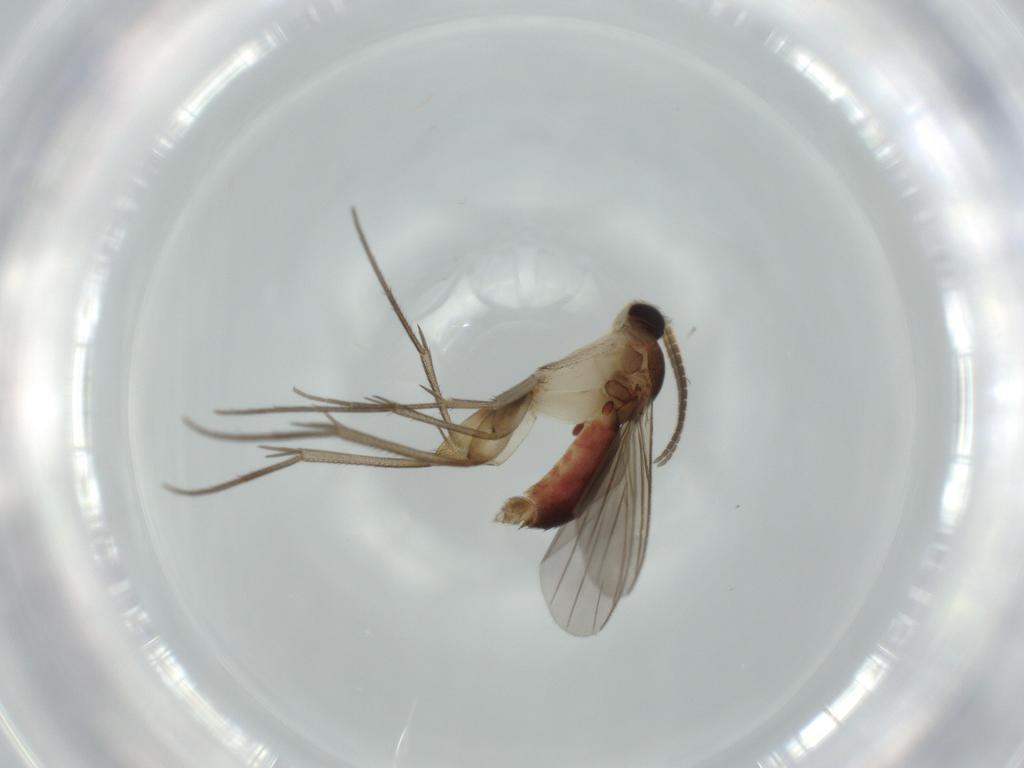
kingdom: Animalia
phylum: Arthropoda
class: Insecta
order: Diptera
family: Mycetophilidae
